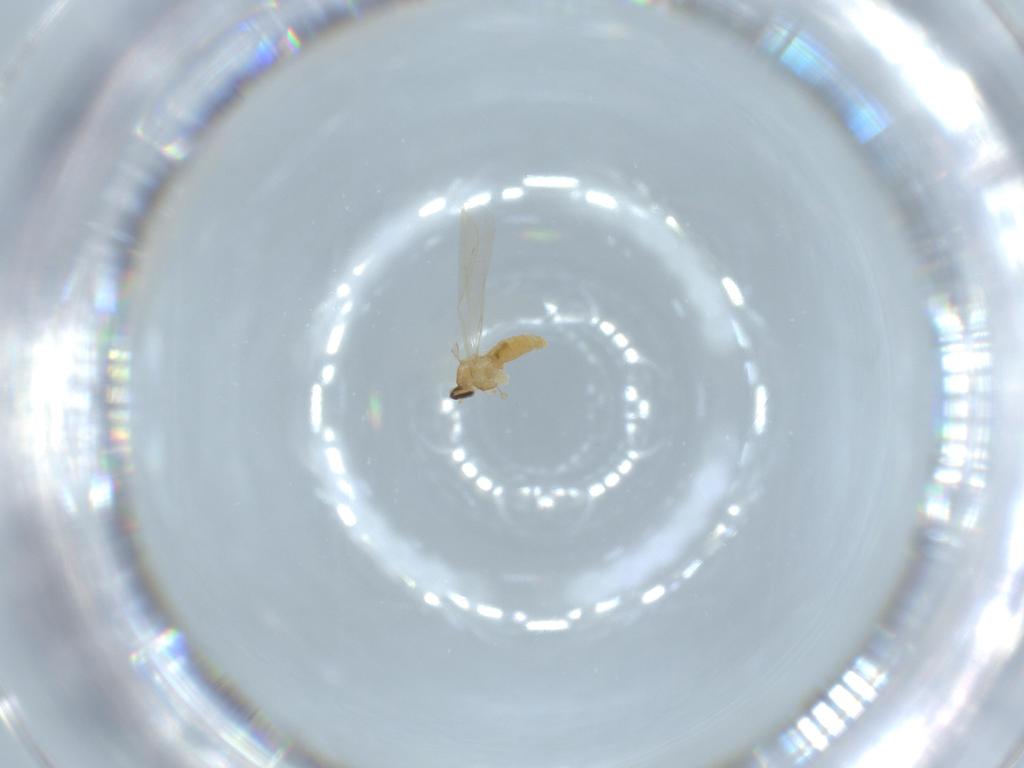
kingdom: Animalia
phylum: Arthropoda
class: Insecta
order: Diptera
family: Cecidomyiidae
